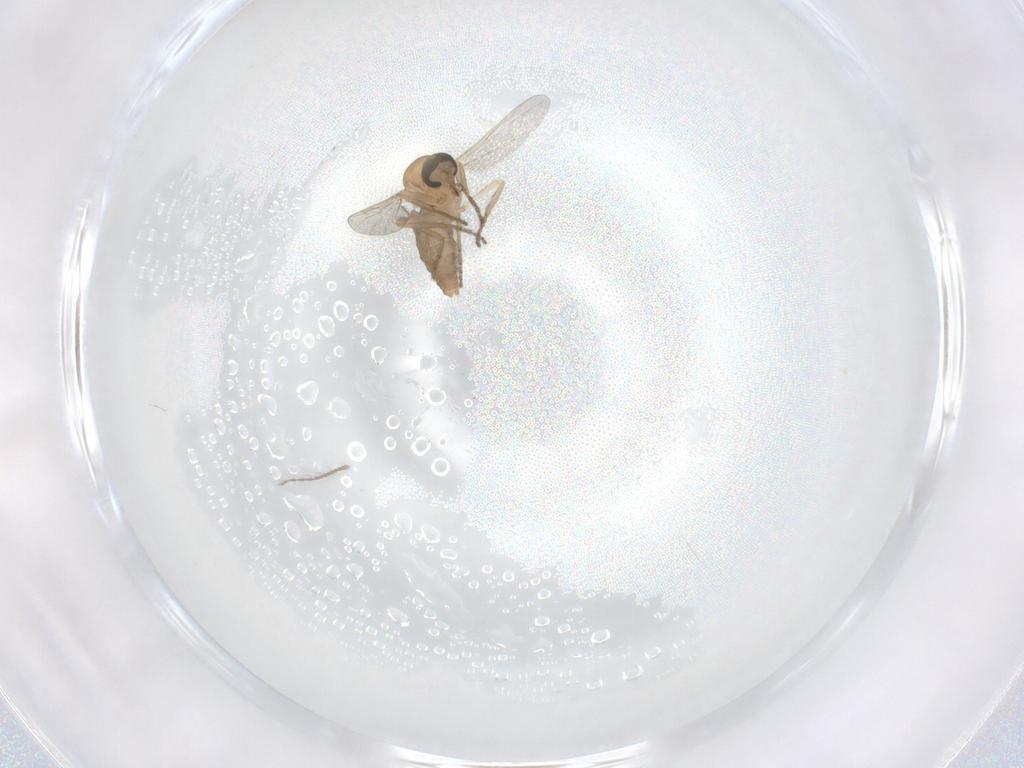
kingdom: Animalia
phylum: Arthropoda
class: Insecta
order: Diptera
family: Ceratopogonidae
